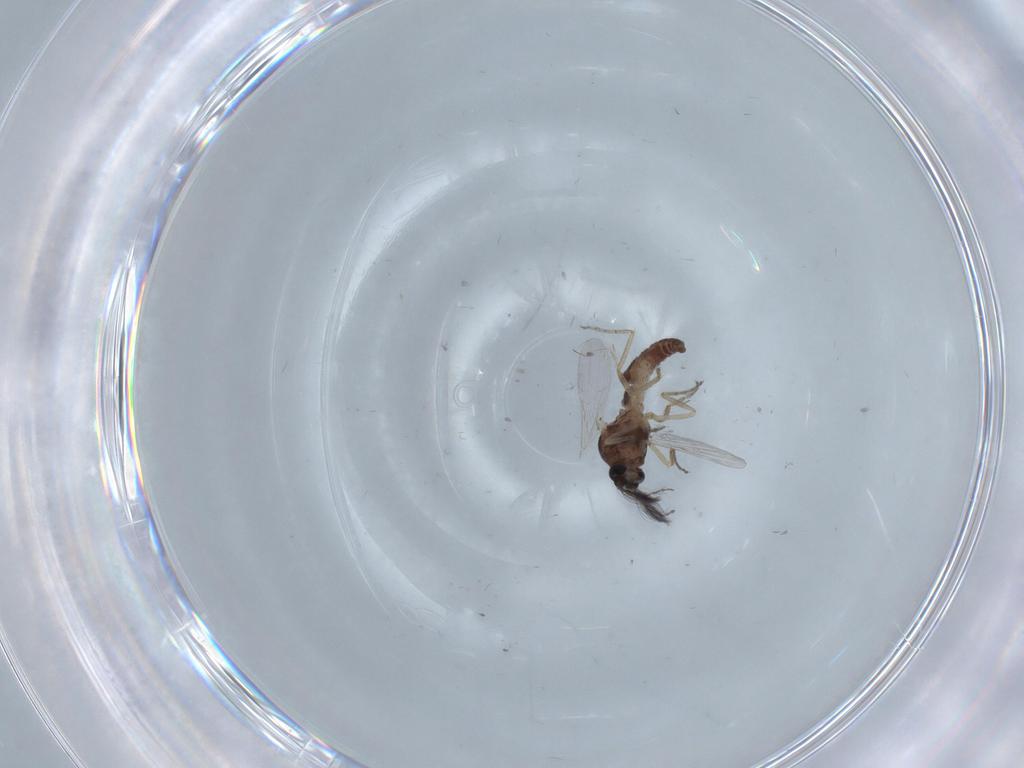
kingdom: Animalia
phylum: Arthropoda
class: Insecta
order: Diptera
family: Ceratopogonidae
